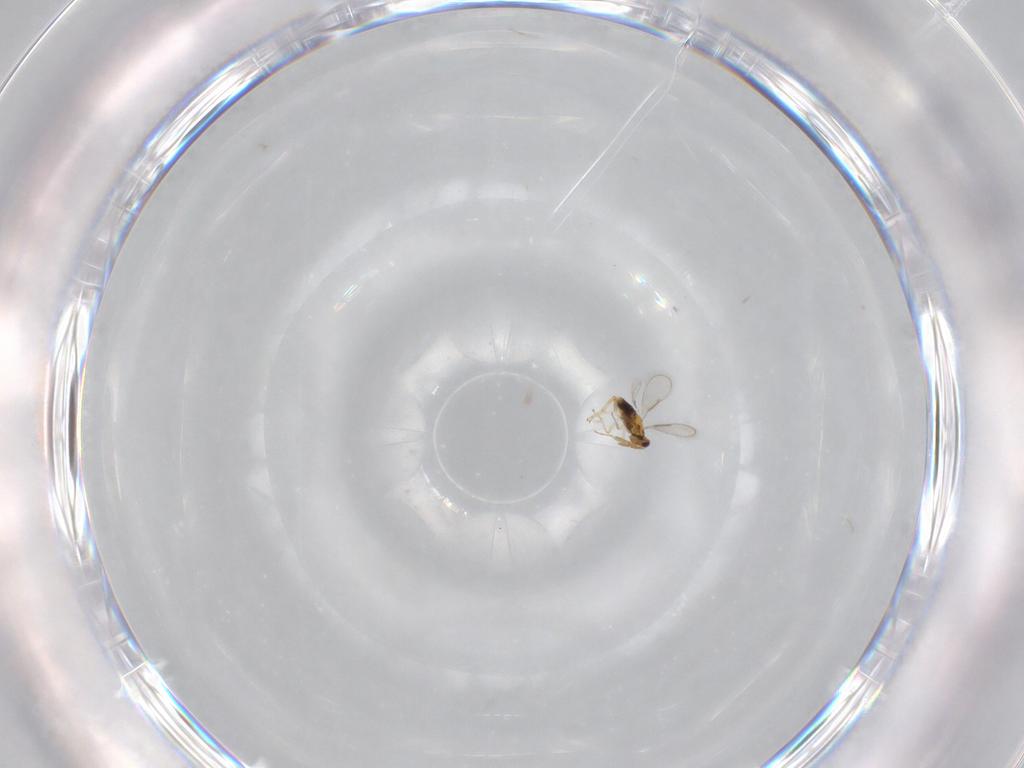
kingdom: Animalia
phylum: Arthropoda
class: Insecta
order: Hymenoptera
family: Aphelinidae
